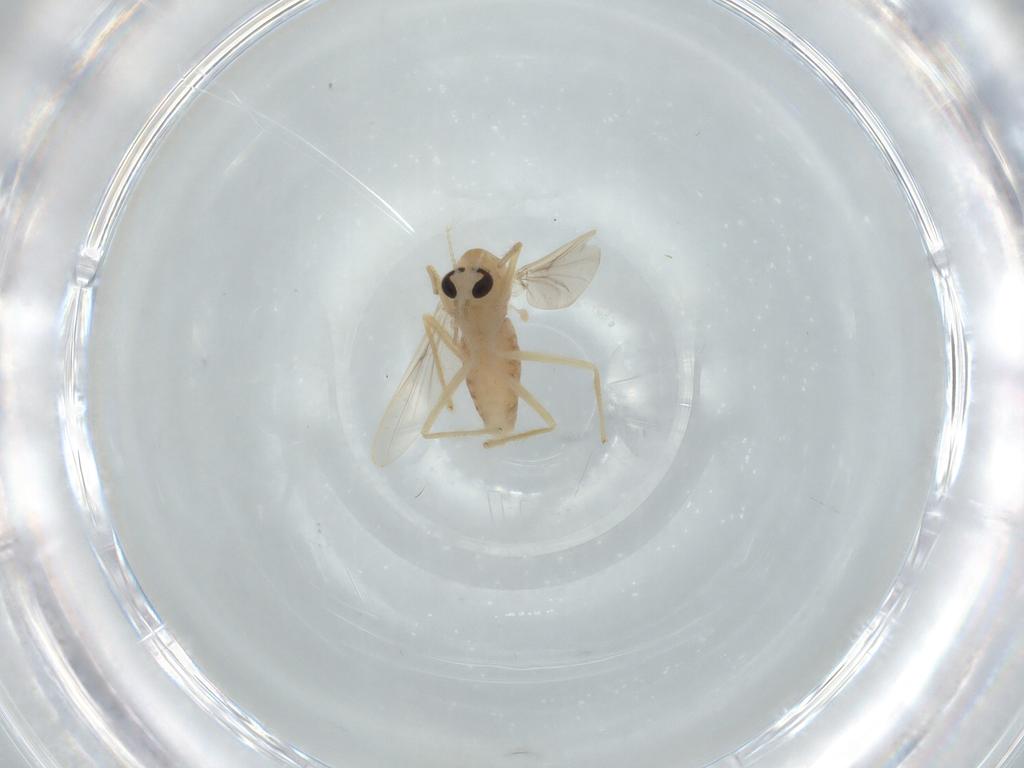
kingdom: Animalia
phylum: Arthropoda
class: Insecta
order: Diptera
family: Chironomidae
